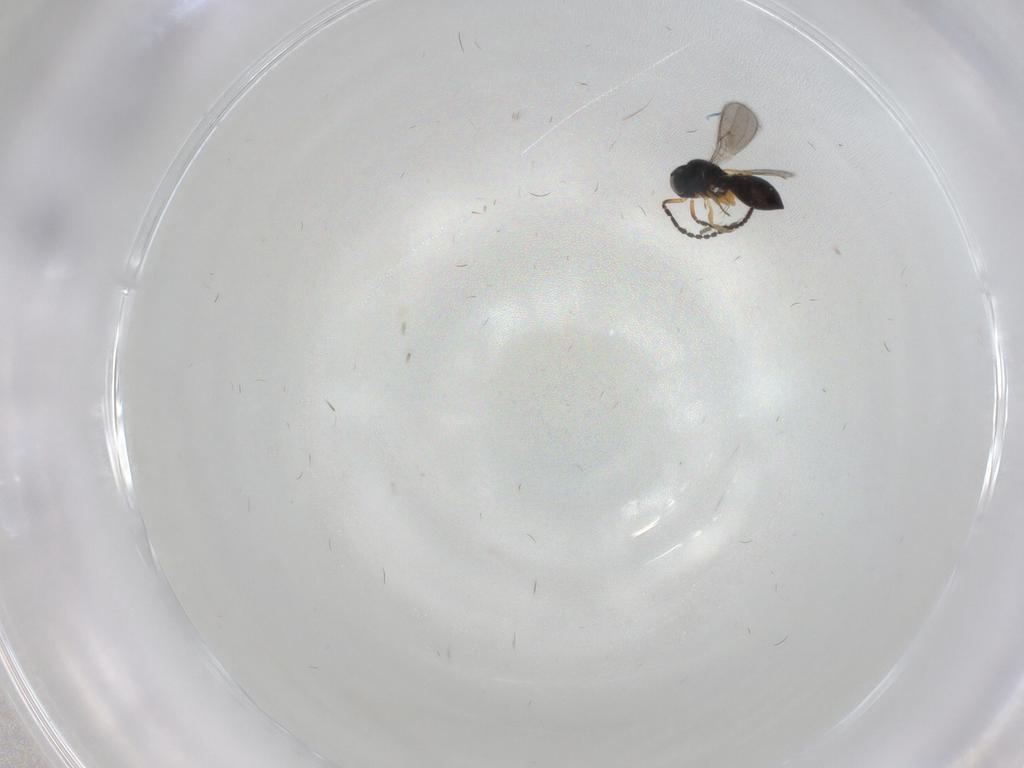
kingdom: Animalia
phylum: Arthropoda
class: Insecta
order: Hymenoptera
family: Scelionidae
